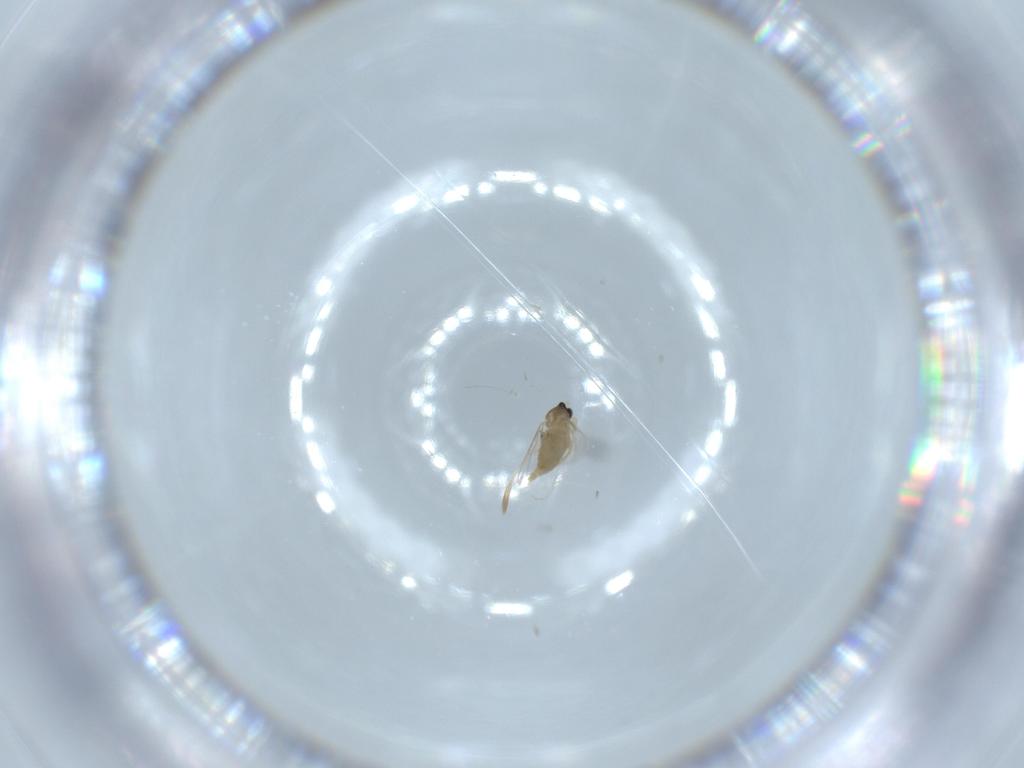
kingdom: Animalia
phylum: Arthropoda
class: Insecta
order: Diptera
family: Cecidomyiidae
